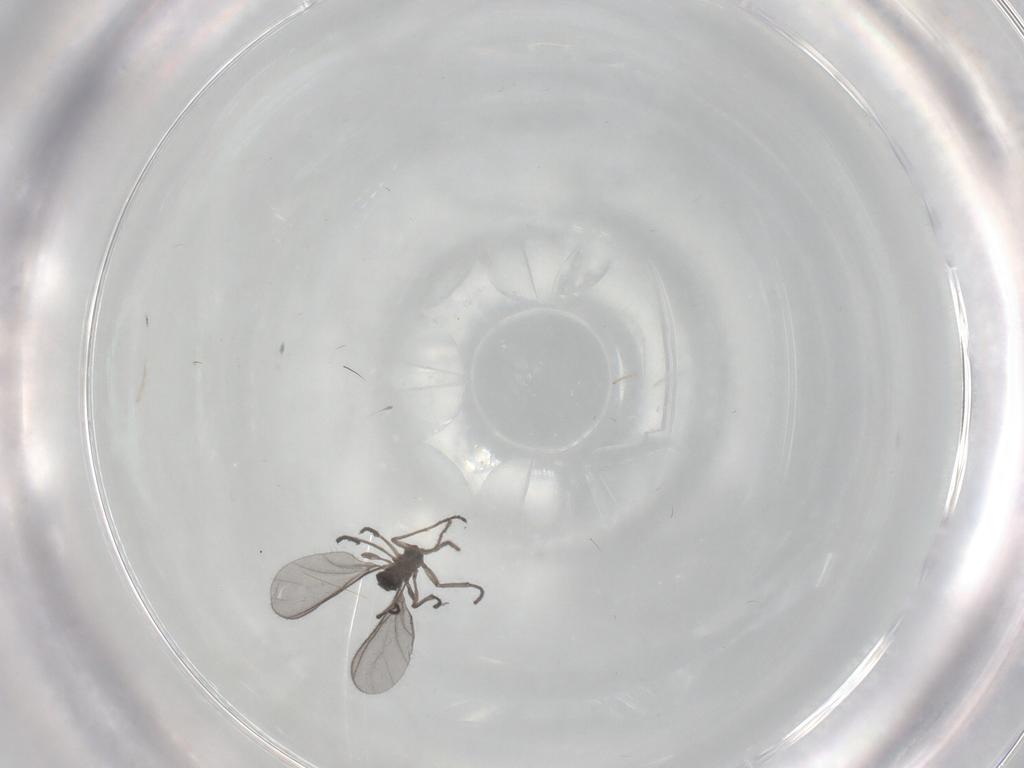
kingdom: Animalia
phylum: Arthropoda
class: Insecta
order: Diptera
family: Sciaridae
